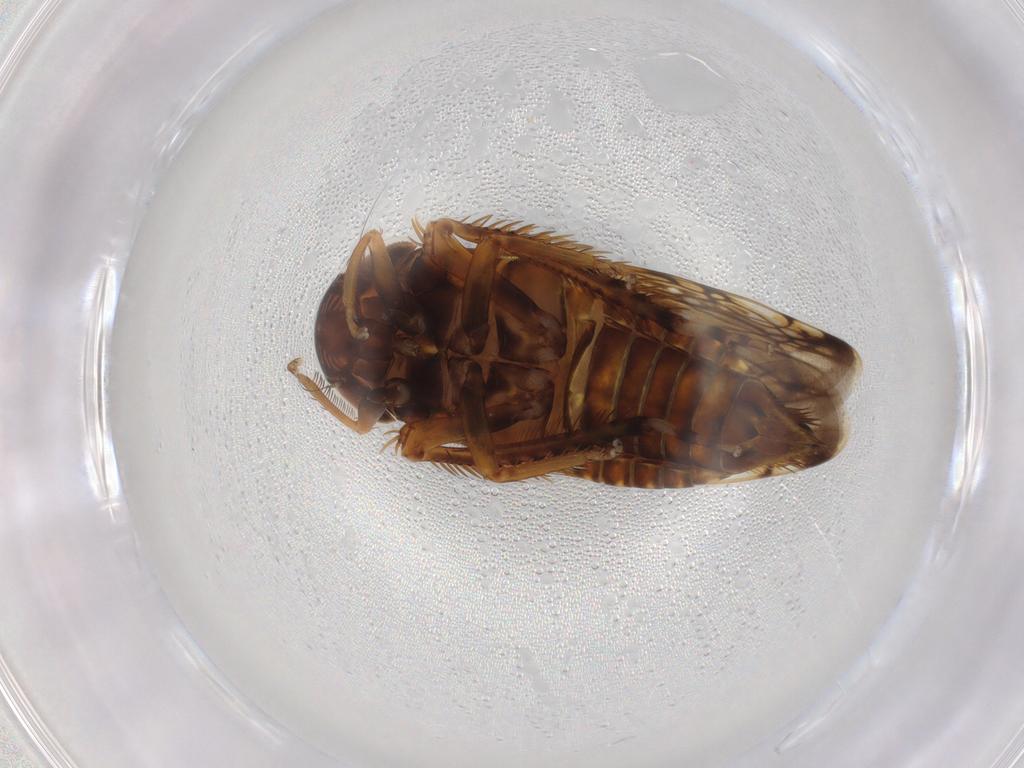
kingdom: Animalia
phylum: Arthropoda
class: Insecta
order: Hemiptera
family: Cicadellidae
